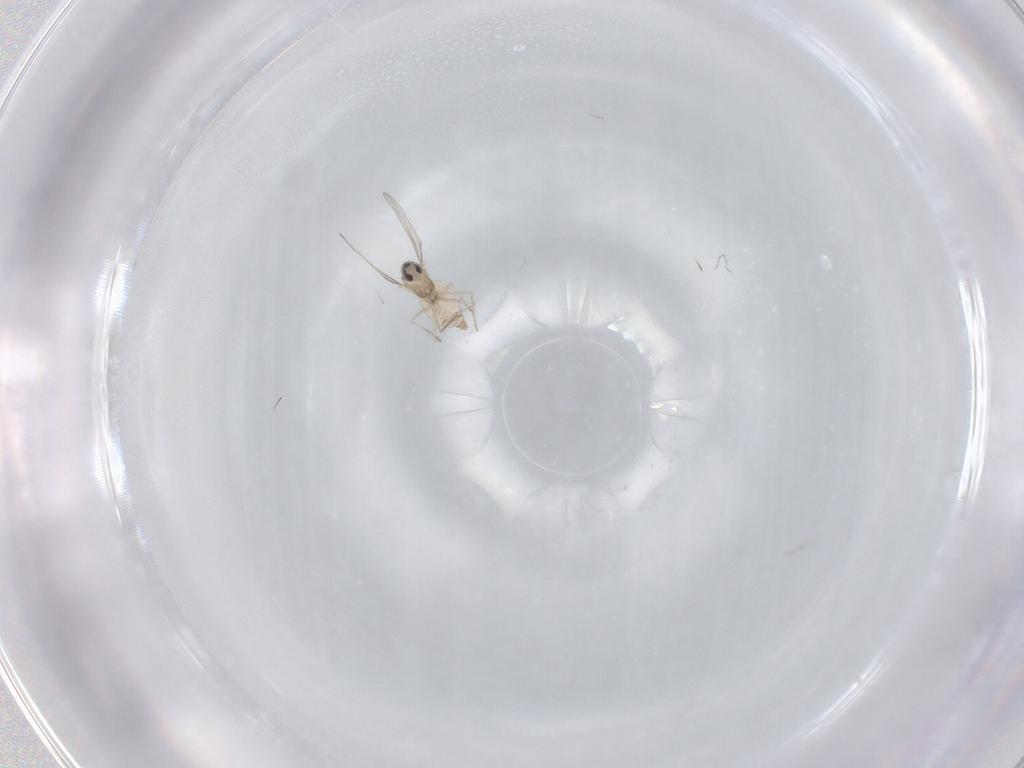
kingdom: Animalia
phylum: Arthropoda
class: Insecta
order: Diptera
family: Cecidomyiidae
